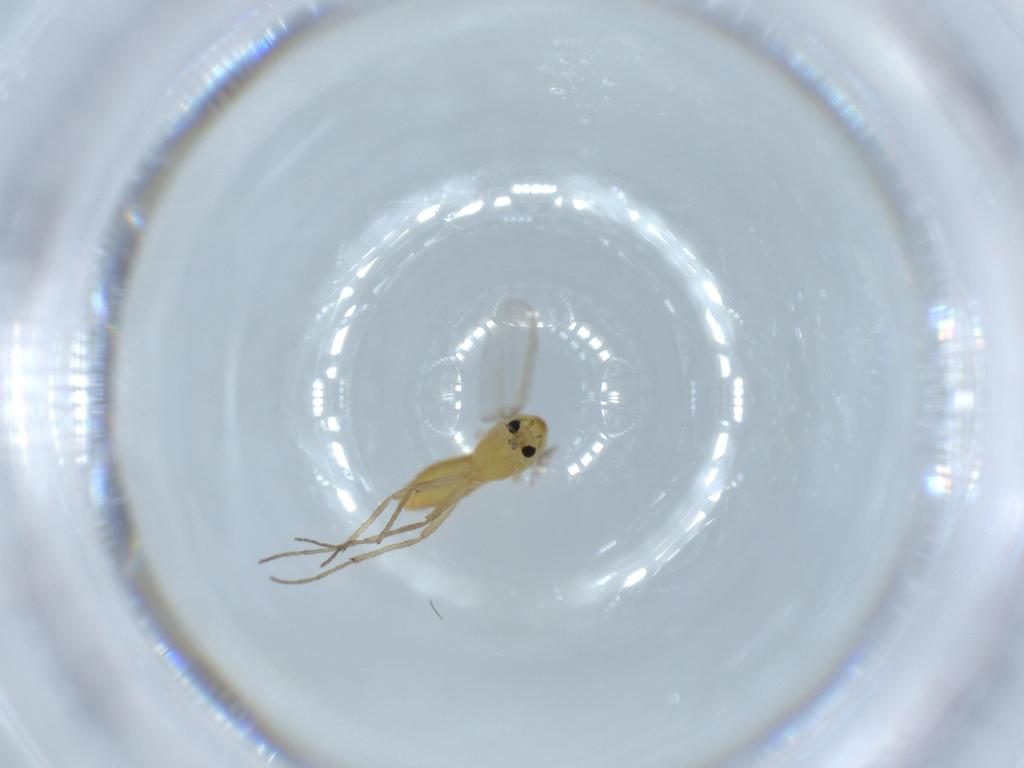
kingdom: Animalia
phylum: Arthropoda
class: Insecta
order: Diptera
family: Chironomidae
